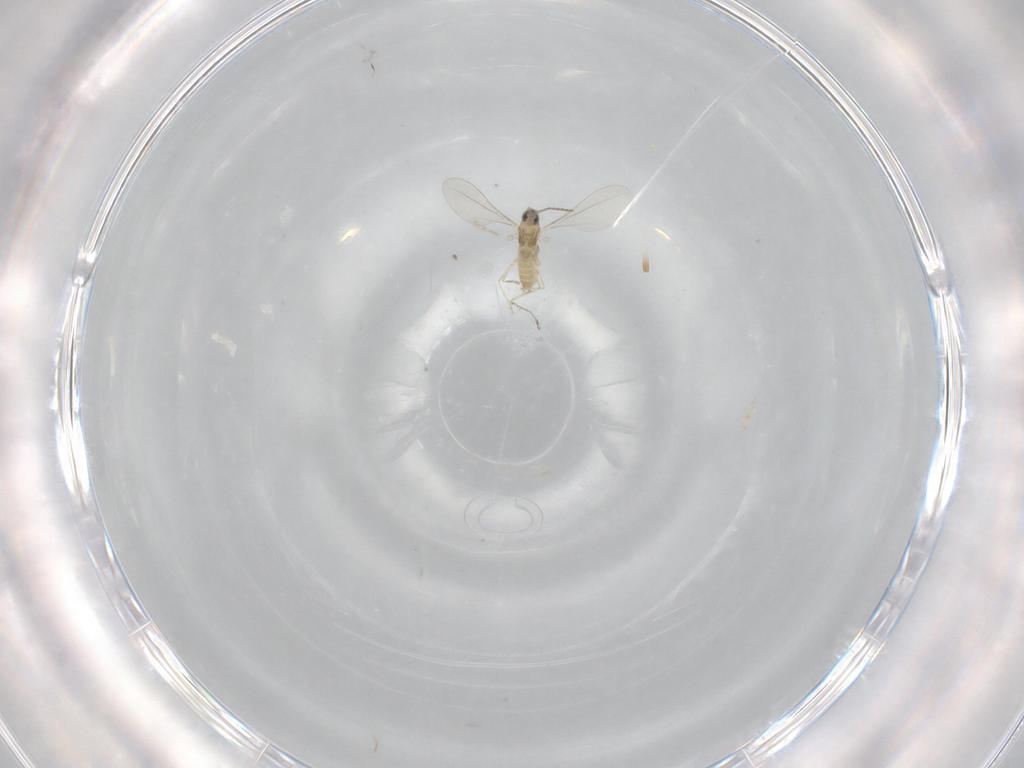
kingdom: Animalia
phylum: Arthropoda
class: Insecta
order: Diptera
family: Cecidomyiidae
